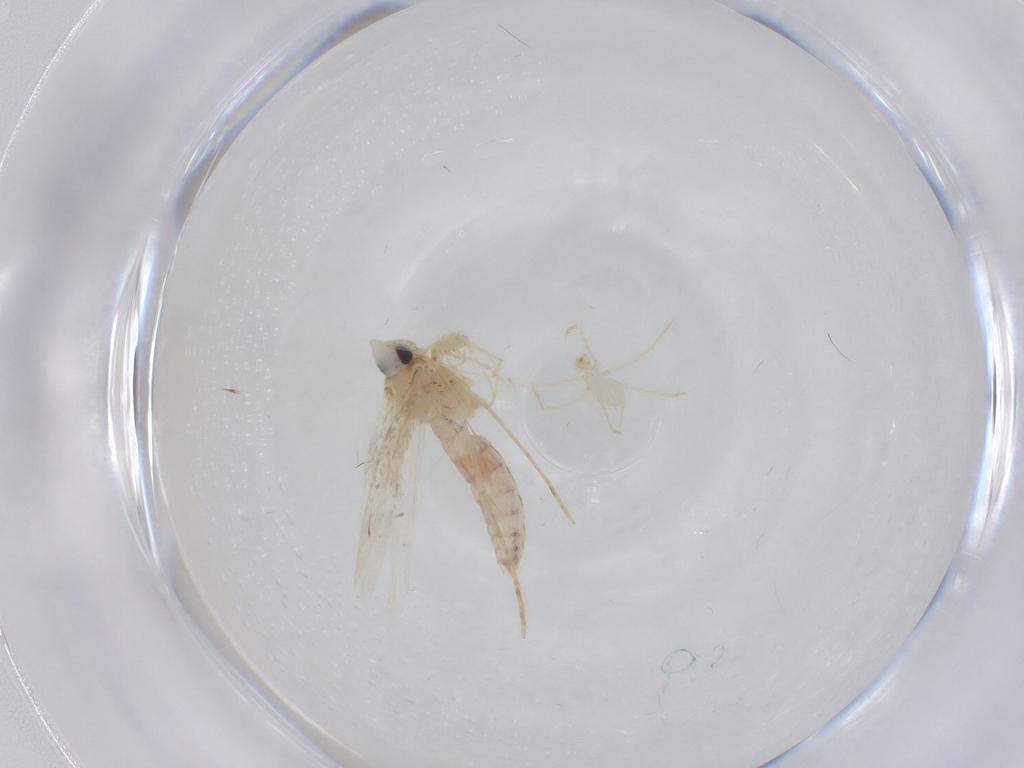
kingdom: Animalia
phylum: Arthropoda
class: Insecta
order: Lepidoptera
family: Tineidae
